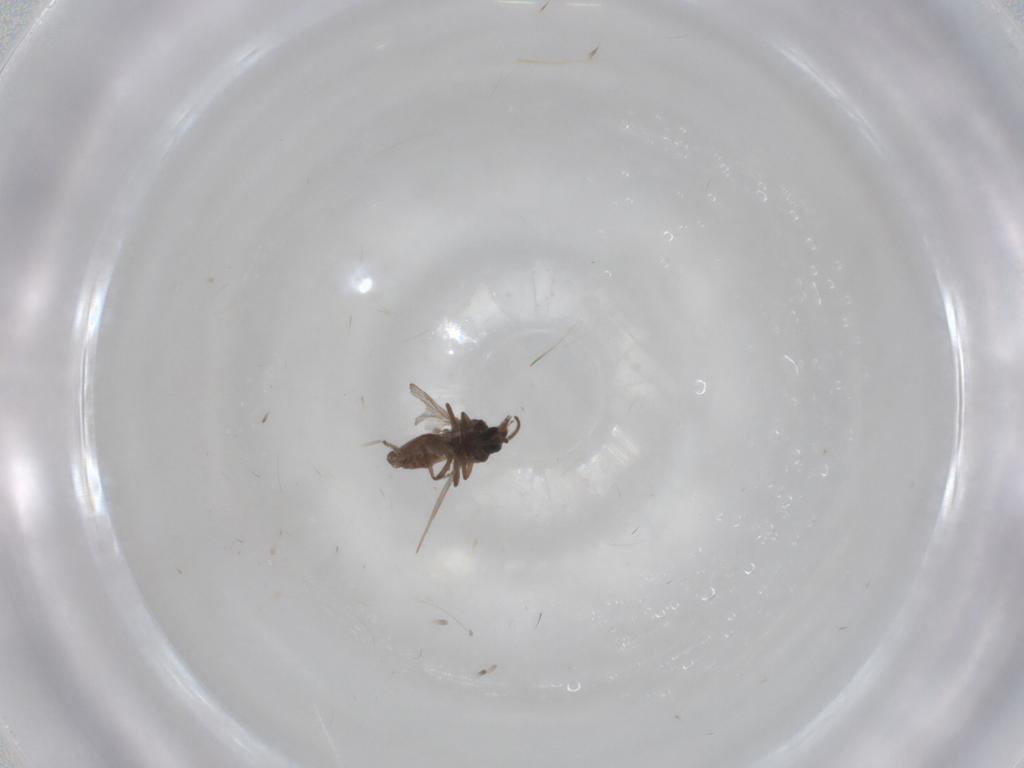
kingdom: Animalia
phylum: Arthropoda
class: Insecta
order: Diptera
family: Ceratopogonidae
